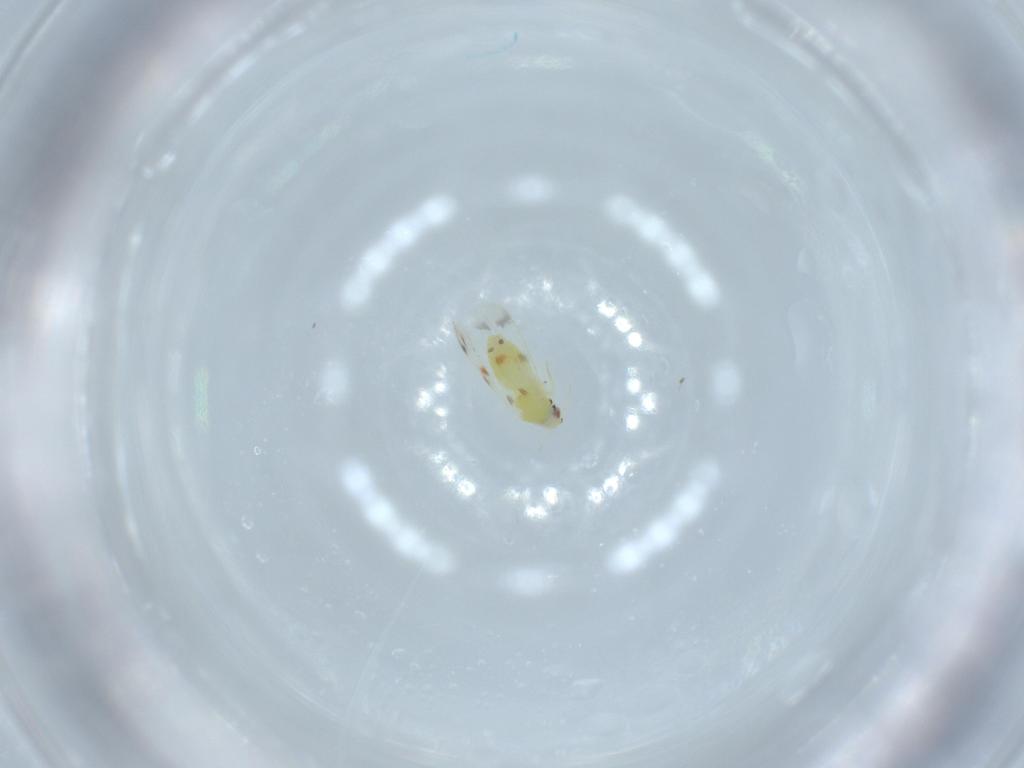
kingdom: Animalia
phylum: Arthropoda
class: Insecta
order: Hemiptera
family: Aleyrodidae
